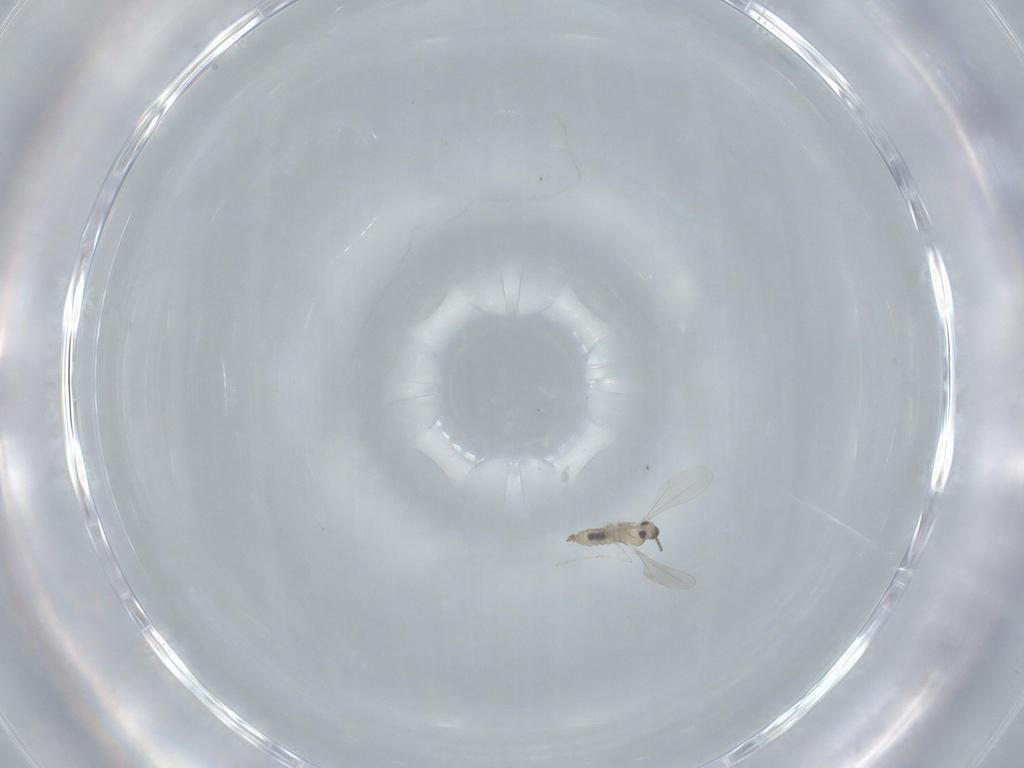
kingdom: Animalia
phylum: Arthropoda
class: Insecta
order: Diptera
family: Cecidomyiidae
